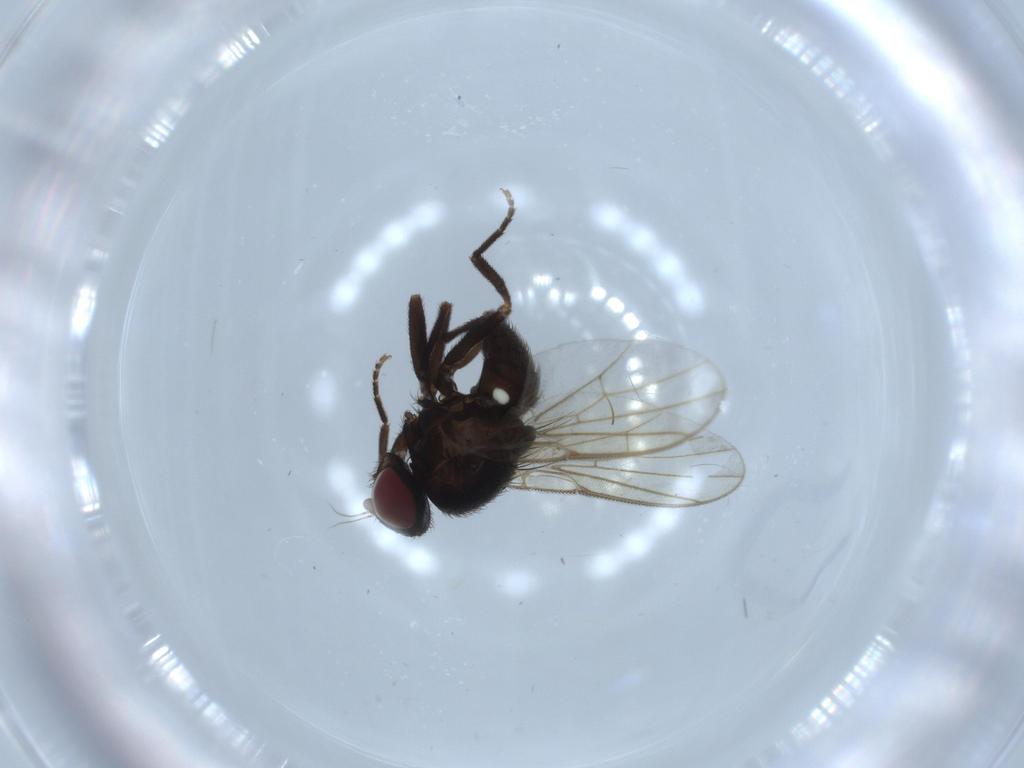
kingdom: Animalia
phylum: Arthropoda
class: Insecta
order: Diptera
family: Agromyzidae
